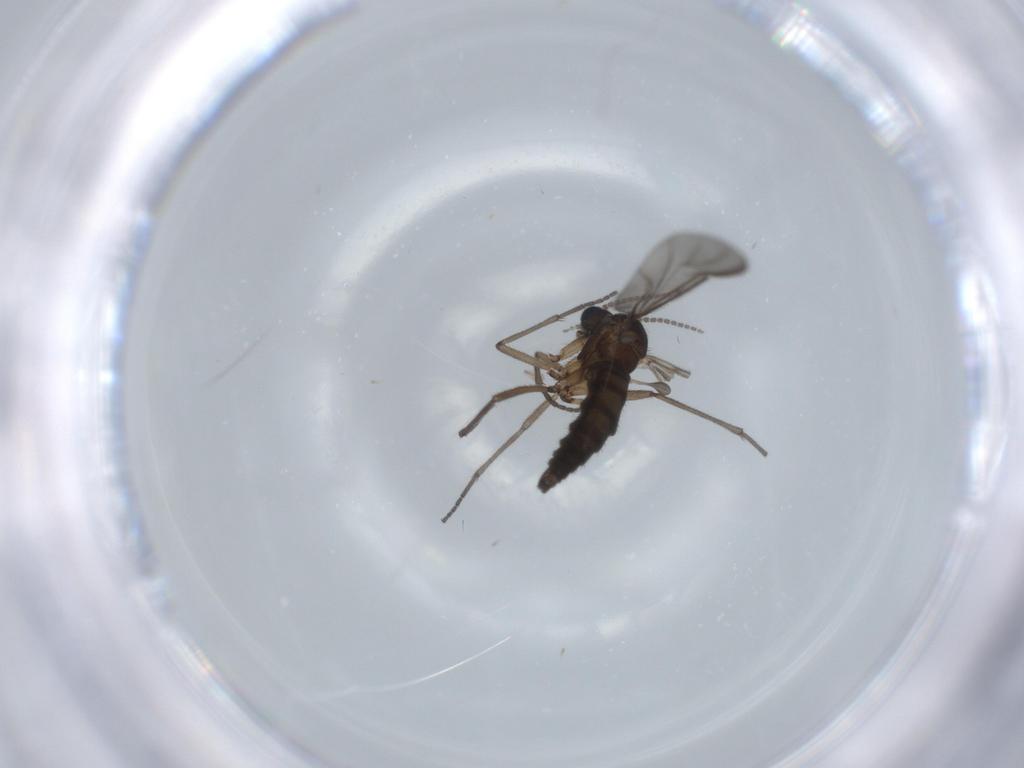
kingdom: Animalia
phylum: Arthropoda
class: Insecta
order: Diptera
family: Sciaridae
